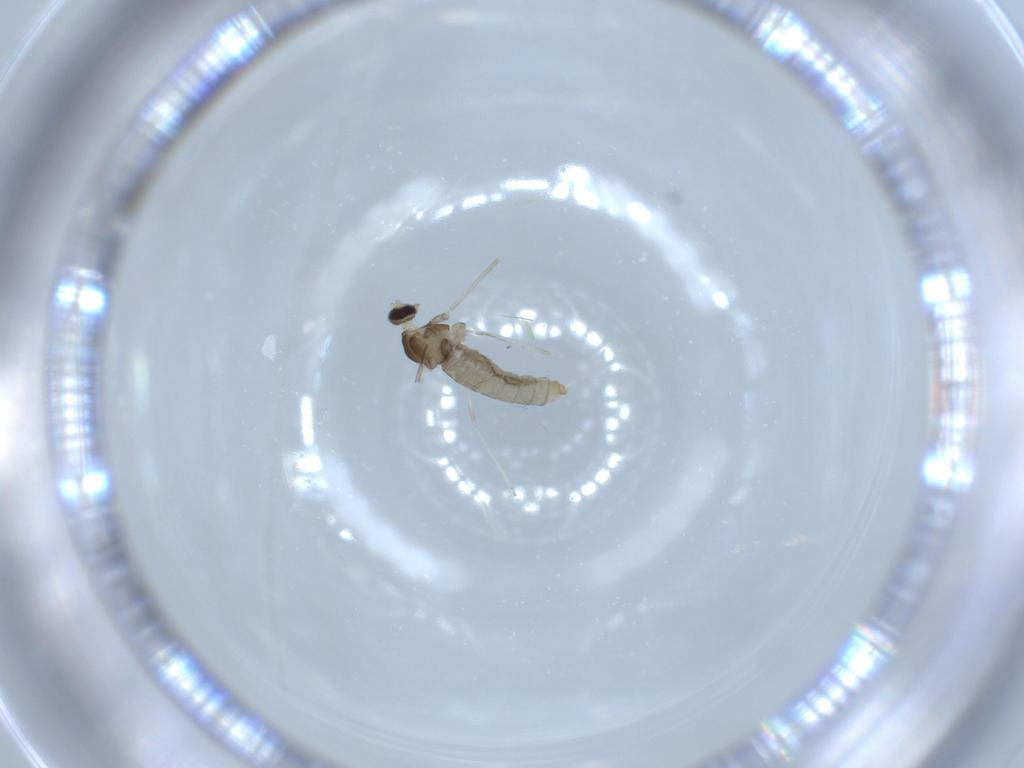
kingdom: Animalia
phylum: Arthropoda
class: Insecta
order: Diptera
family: Cecidomyiidae
